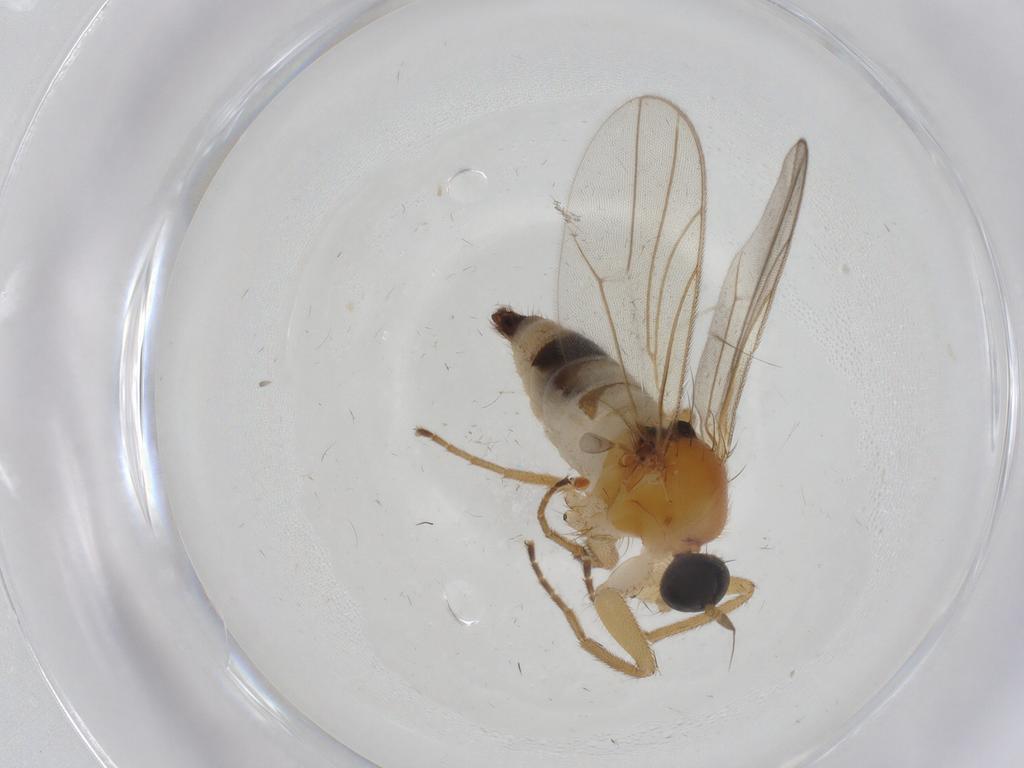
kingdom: Animalia
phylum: Arthropoda
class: Insecta
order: Diptera
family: Hybotidae
